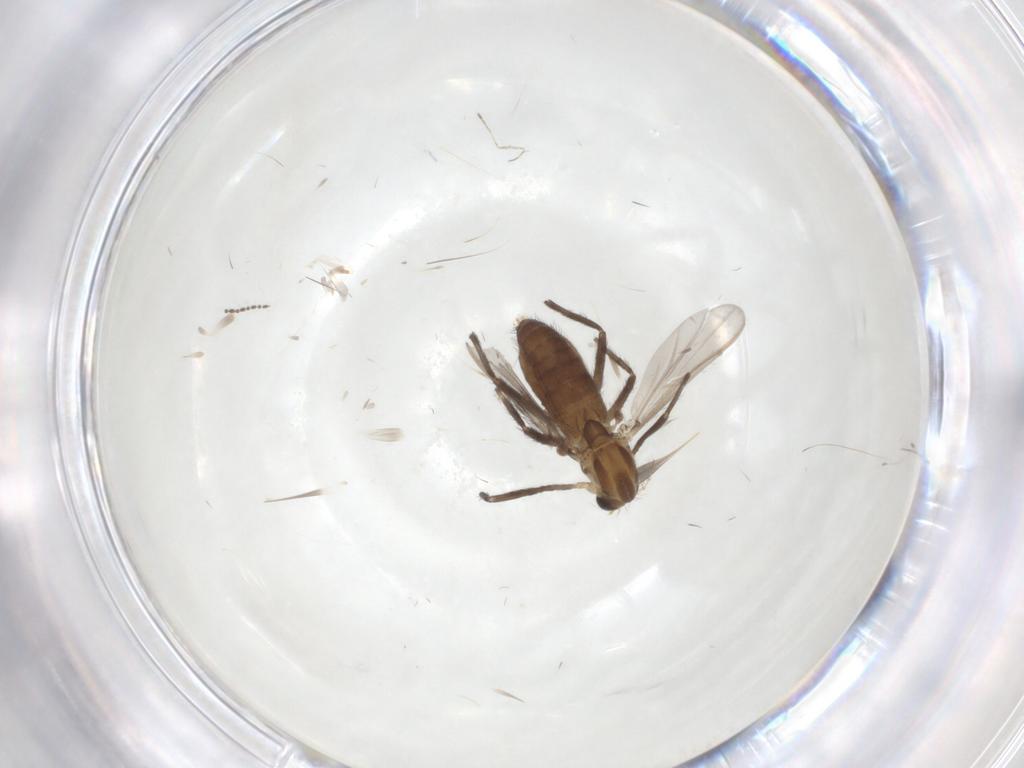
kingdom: Animalia
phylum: Arthropoda
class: Insecta
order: Diptera
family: Chironomidae
